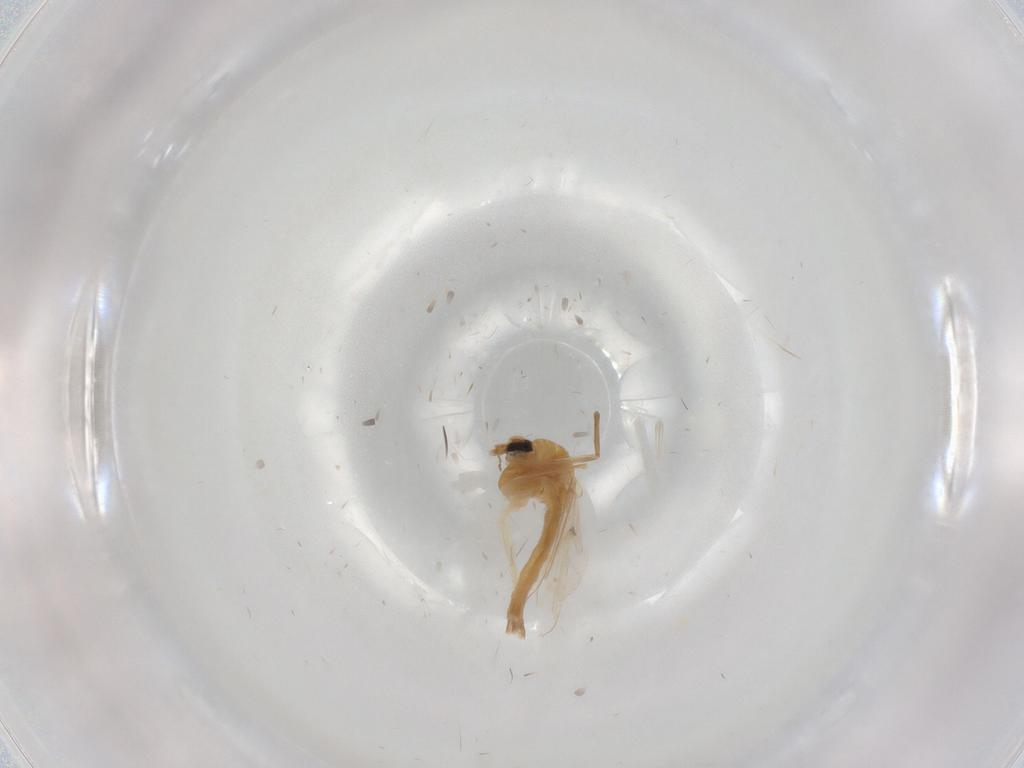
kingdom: Animalia
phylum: Arthropoda
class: Insecta
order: Diptera
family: Chironomidae
